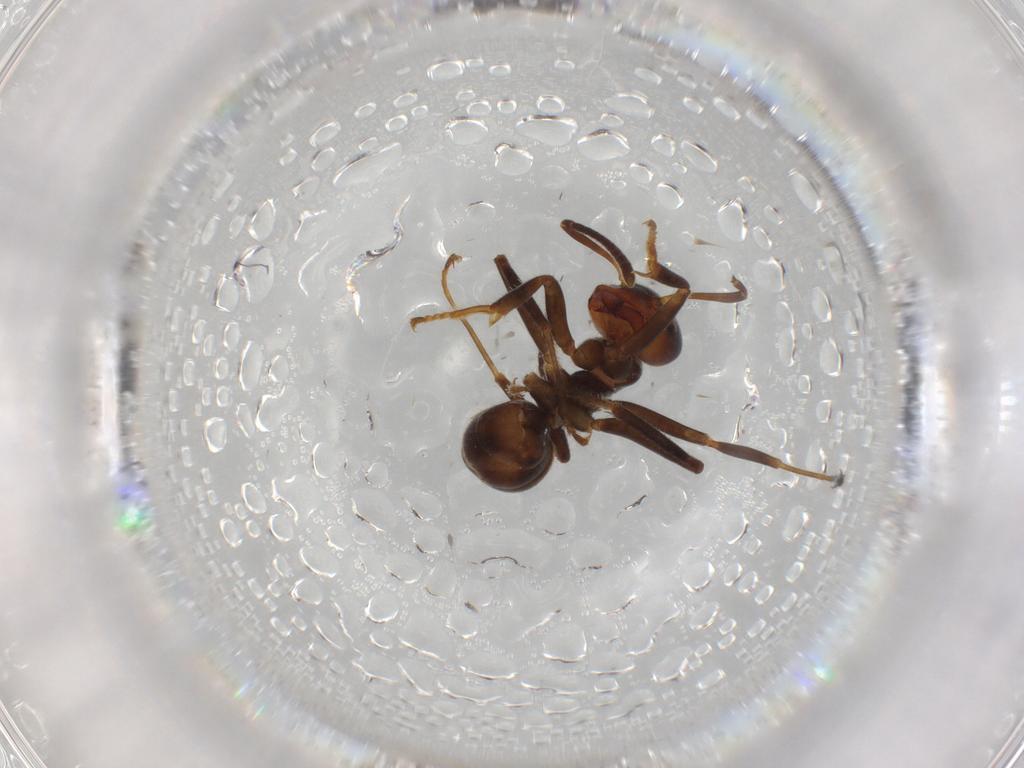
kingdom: Animalia
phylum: Arthropoda
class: Insecta
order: Hymenoptera
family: Formicidae
